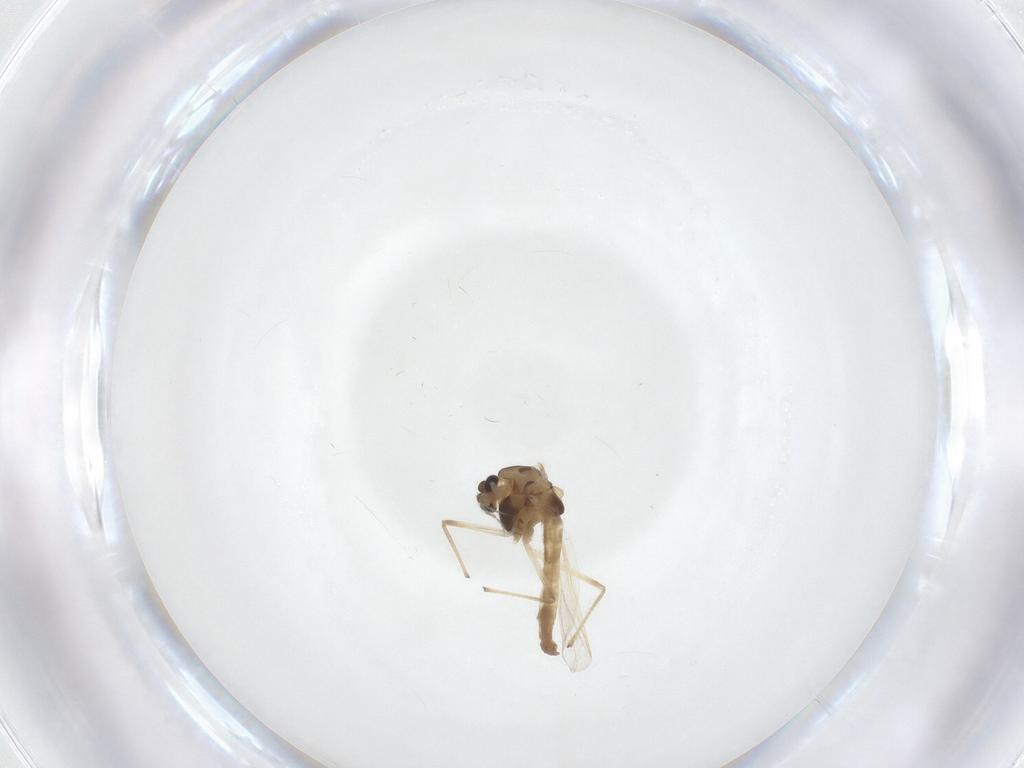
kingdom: Animalia
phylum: Arthropoda
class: Insecta
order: Diptera
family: Chironomidae
